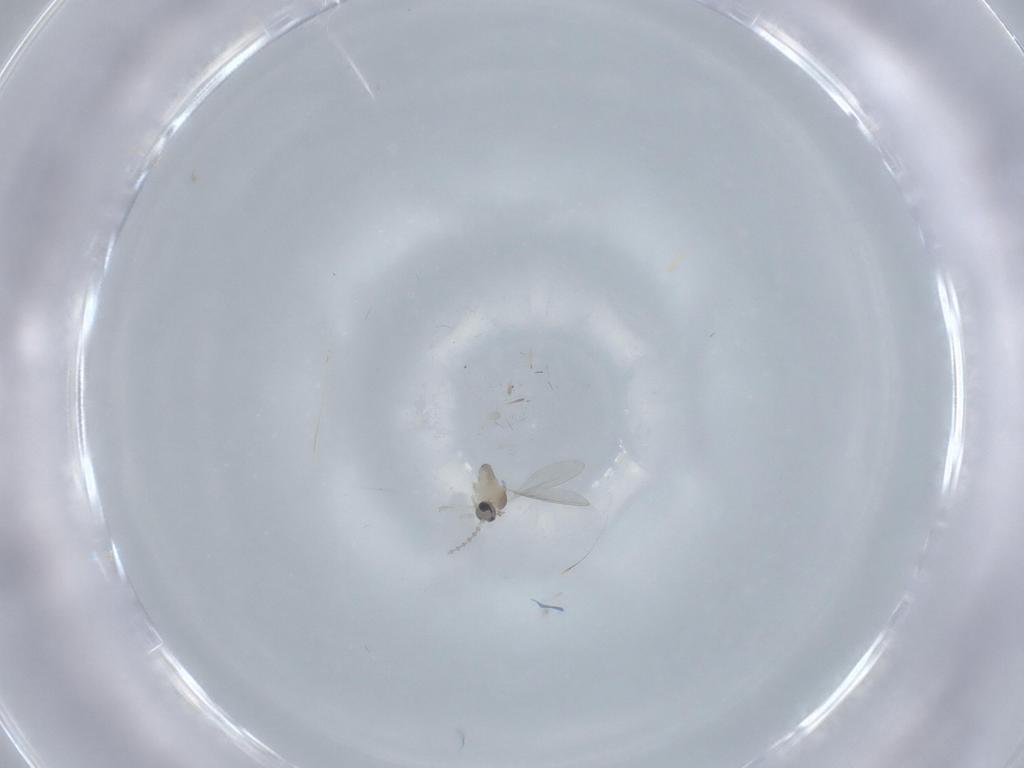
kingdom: Animalia
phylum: Arthropoda
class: Insecta
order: Diptera
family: Cecidomyiidae
